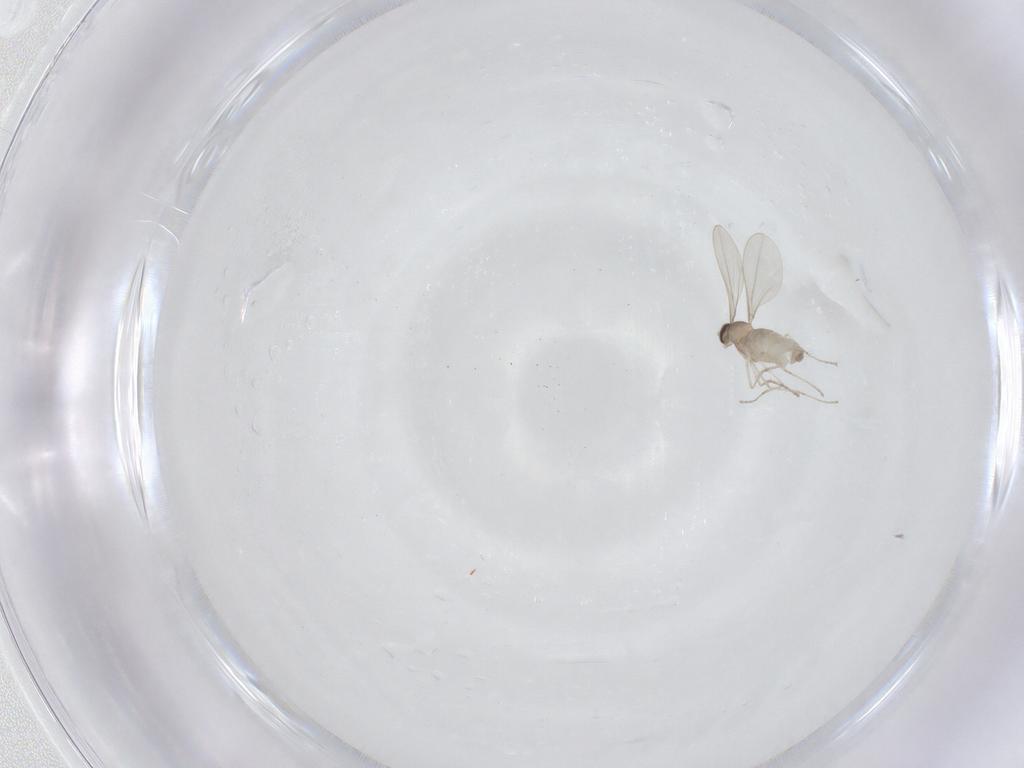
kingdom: Animalia
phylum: Arthropoda
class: Insecta
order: Diptera
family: Cecidomyiidae
